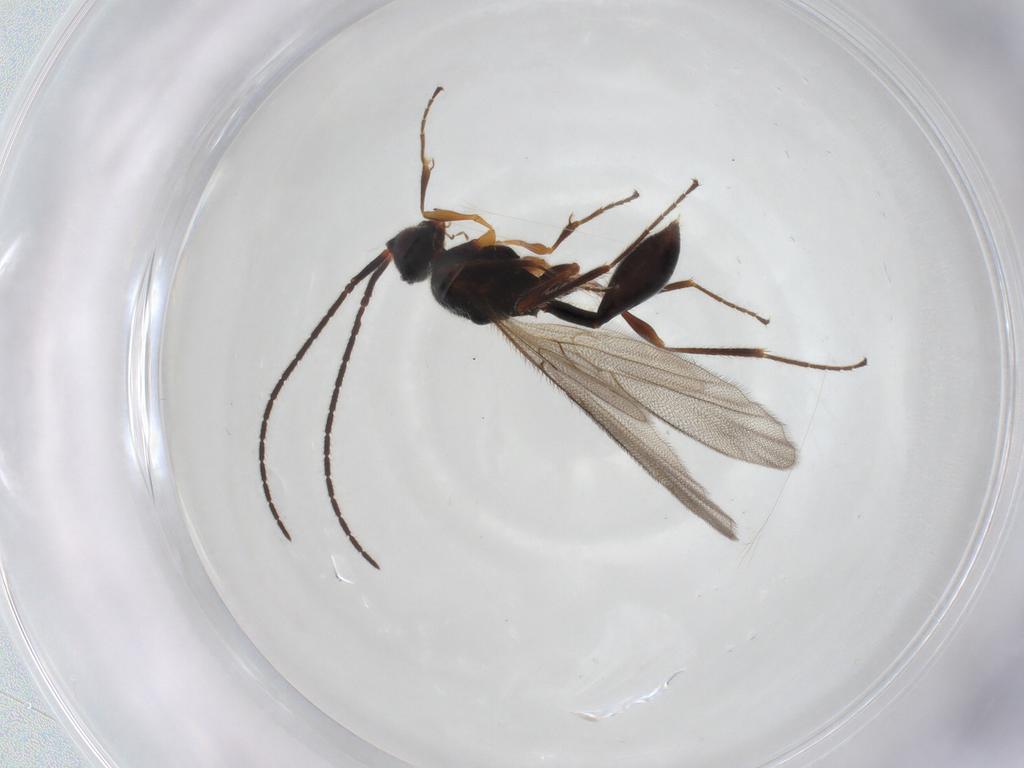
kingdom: Animalia
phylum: Arthropoda
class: Insecta
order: Hymenoptera
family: Diapriidae
